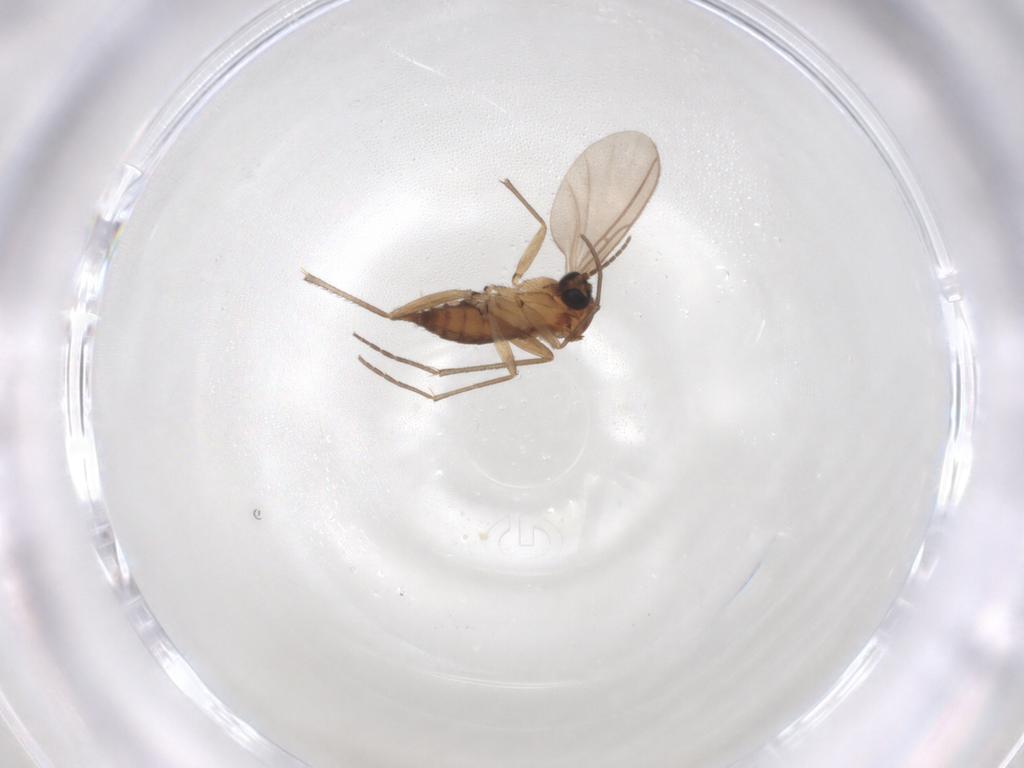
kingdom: Animalia
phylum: Arthropoda
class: Insecta
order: Diptera
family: Sciaridae
